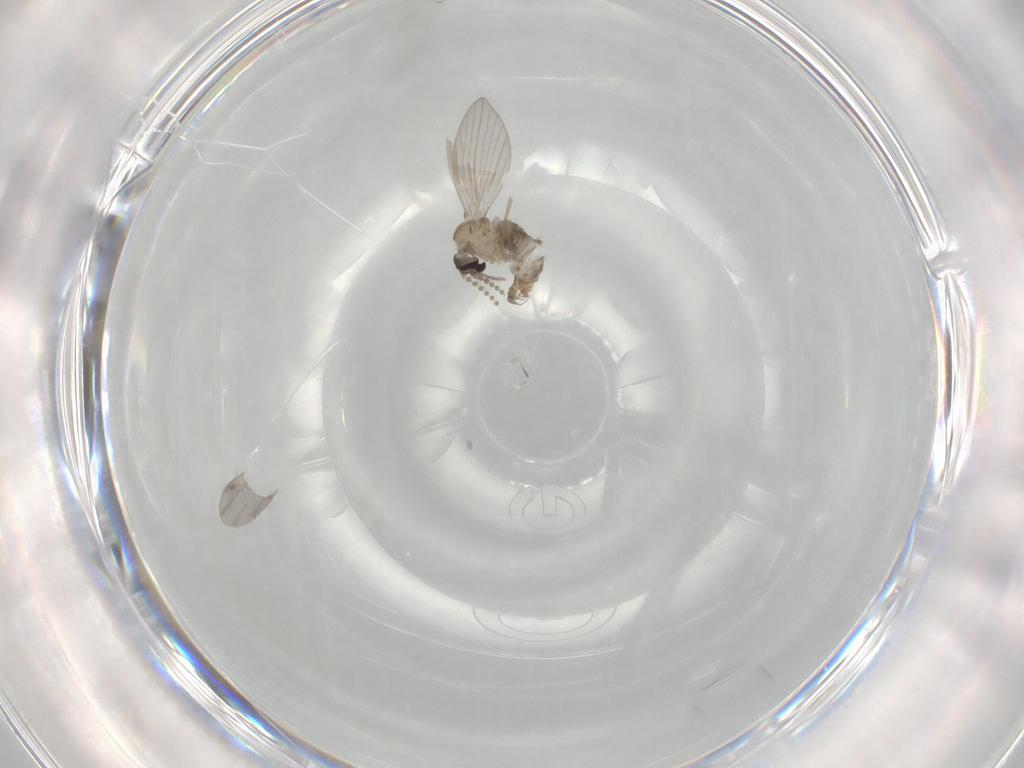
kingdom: Animalia
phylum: Arthropoda
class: Insecta
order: Diptera
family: Psychodidae
